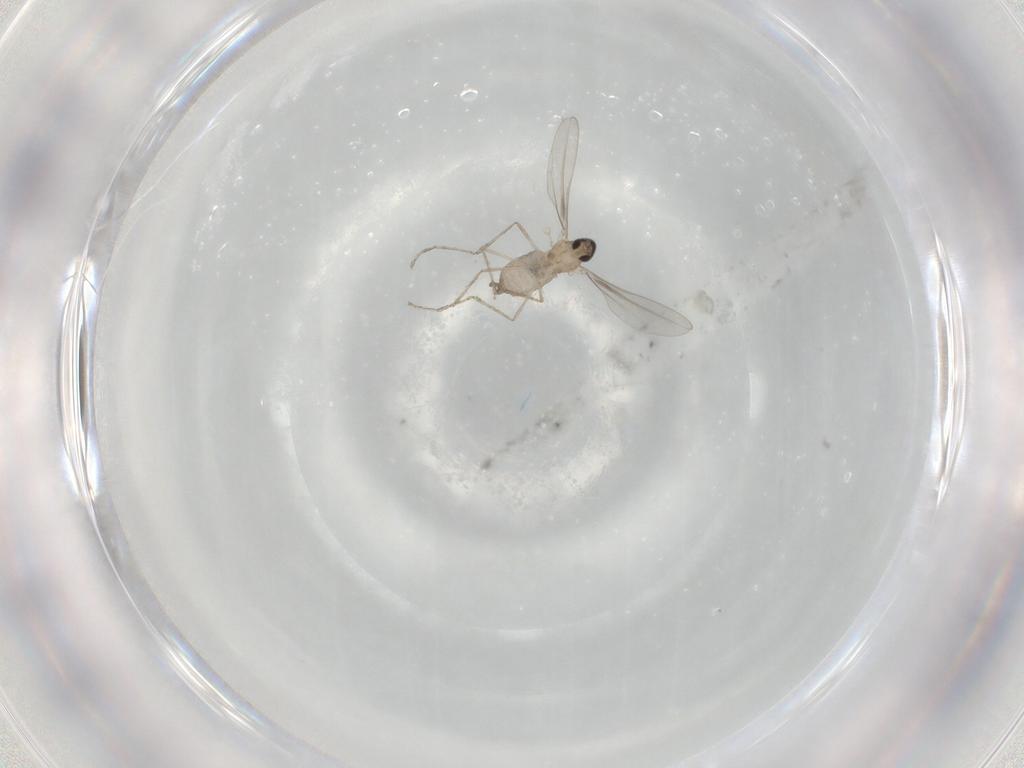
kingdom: Animalia
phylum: Arthropoda
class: Insecta
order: Diptera
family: Cecidomyiidae
